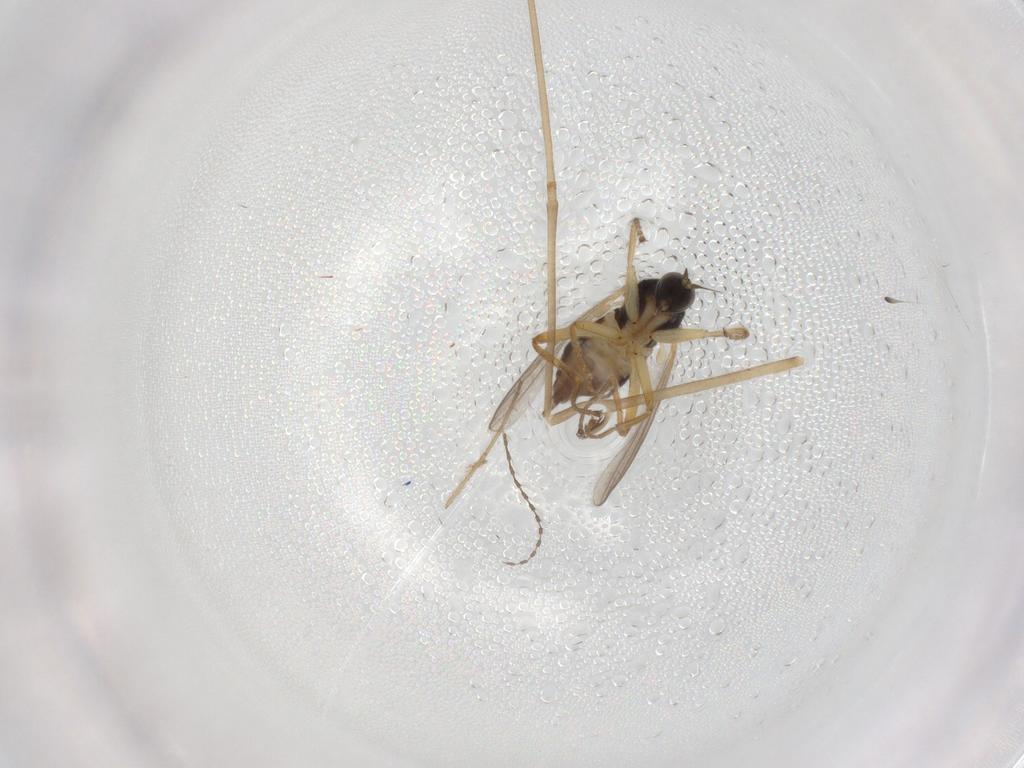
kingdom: Animalia
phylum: Arthropoda
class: Insecta
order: Diptera
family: Hybotidae
